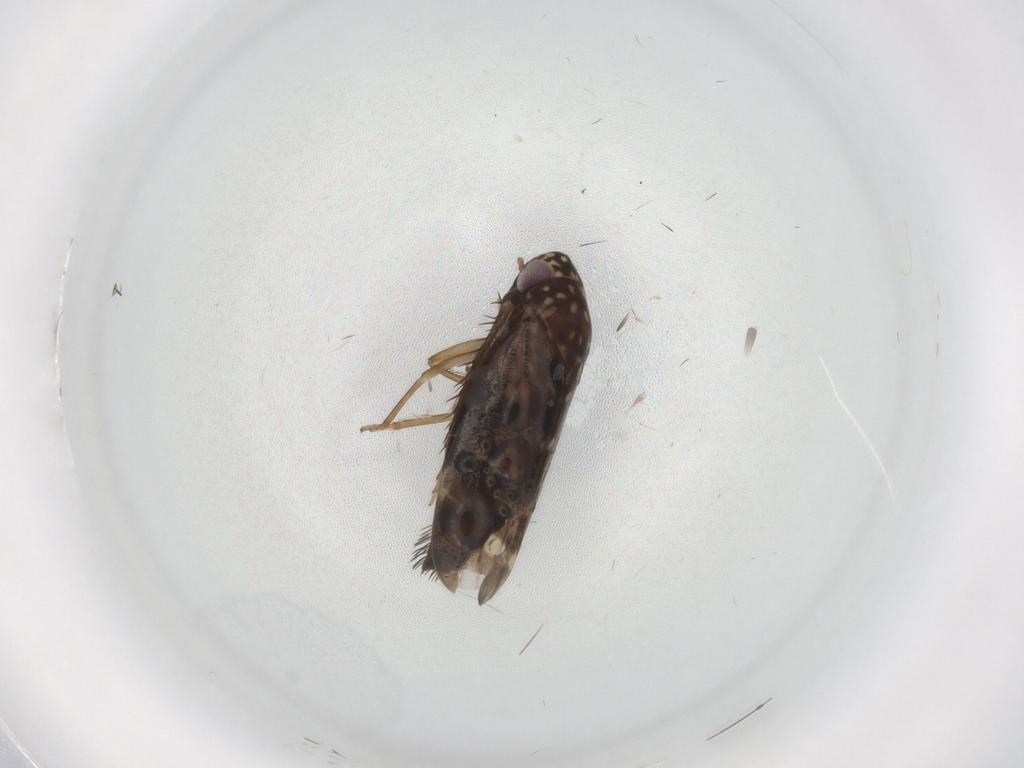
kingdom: Animalia
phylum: Arthropoda
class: Insecta
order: Hemiptera
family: Cicadellidae
